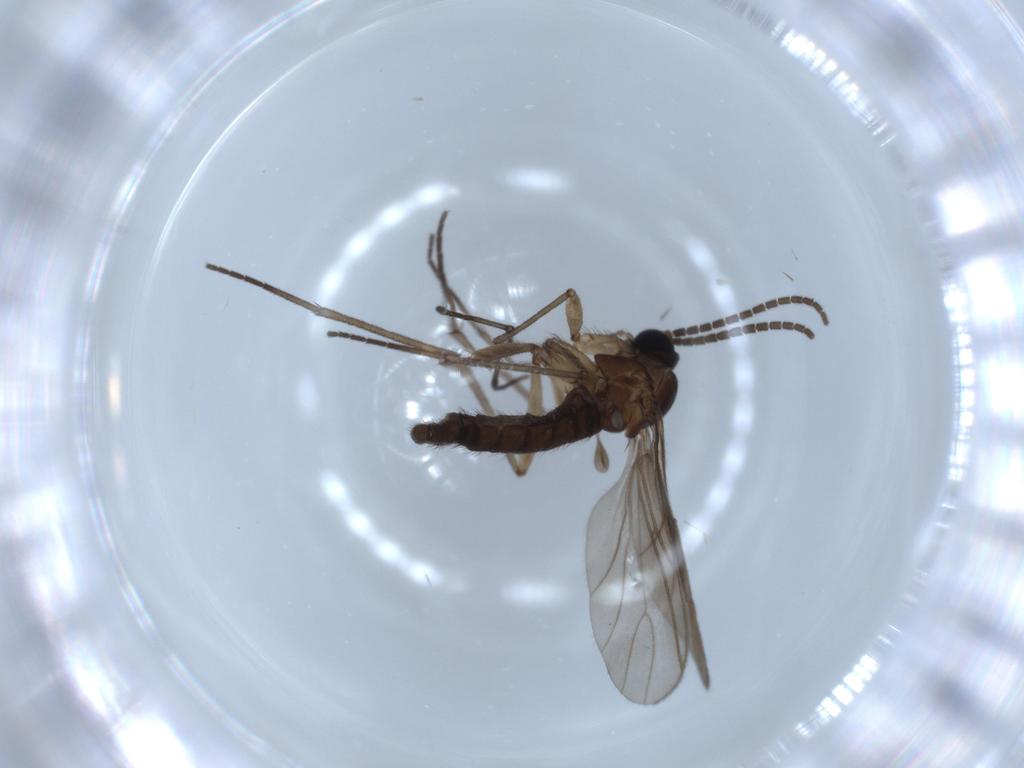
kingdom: Animalia
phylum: Arthropoda
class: Insecta
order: Diptera
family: Sciaridae
